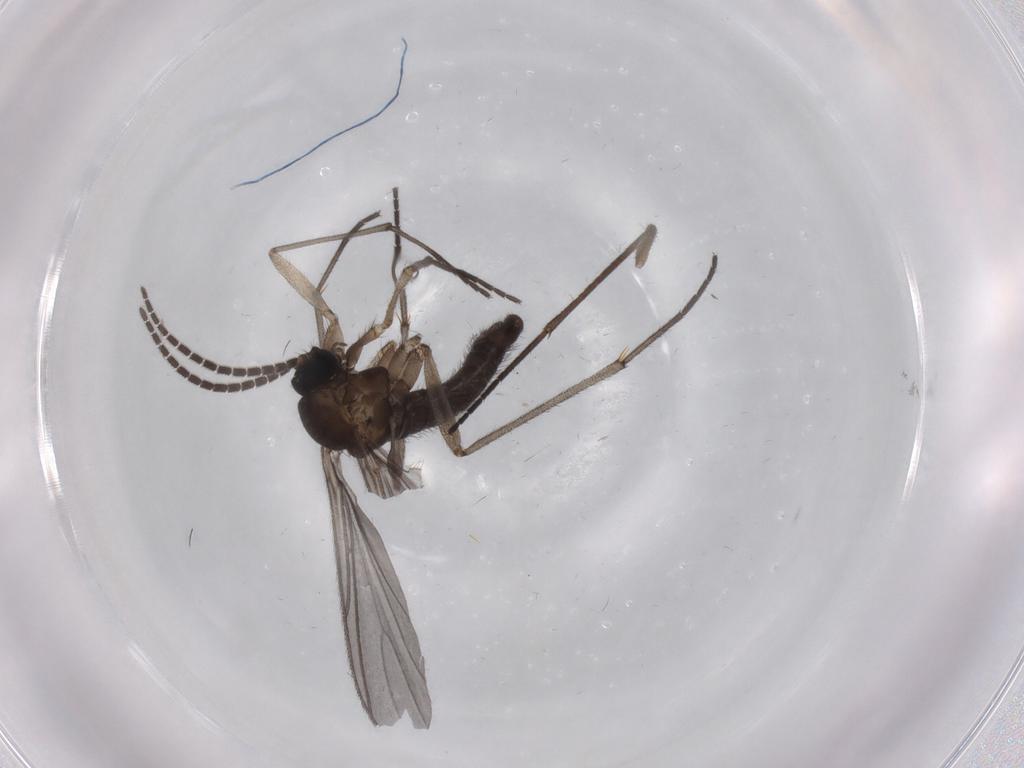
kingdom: Animalia
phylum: Arthropoda
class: Insecta
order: Diptera
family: Sciaridae
